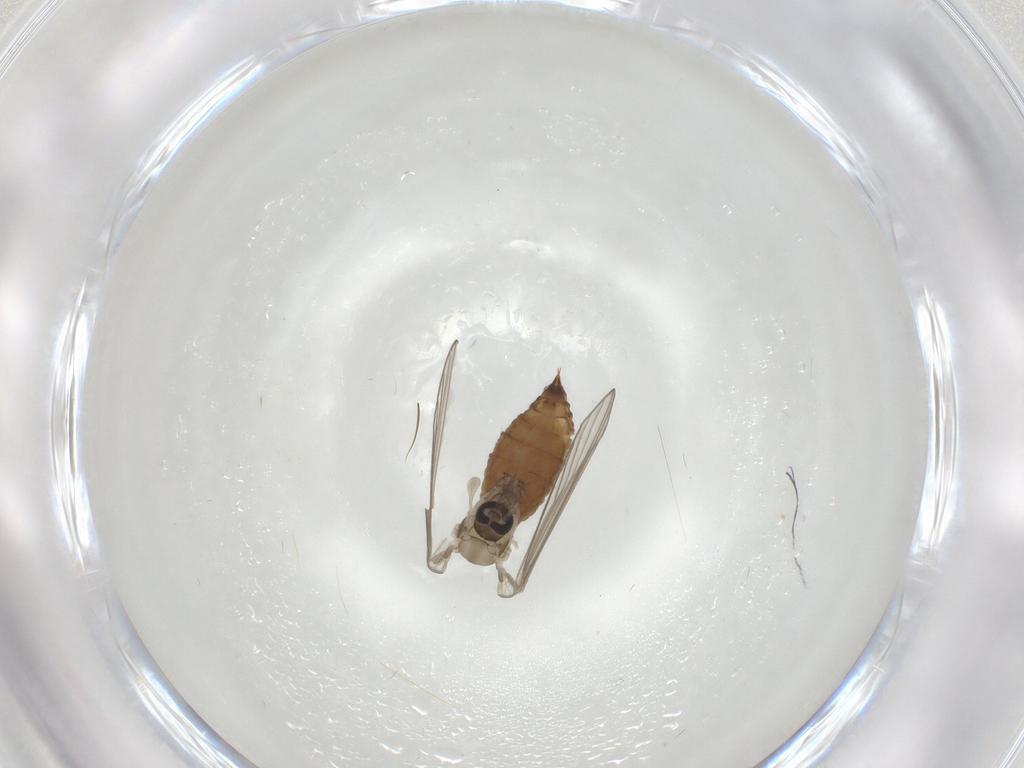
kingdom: Animalia
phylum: Arthropoda
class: Insecta
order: Diptera
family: Psychodidae
